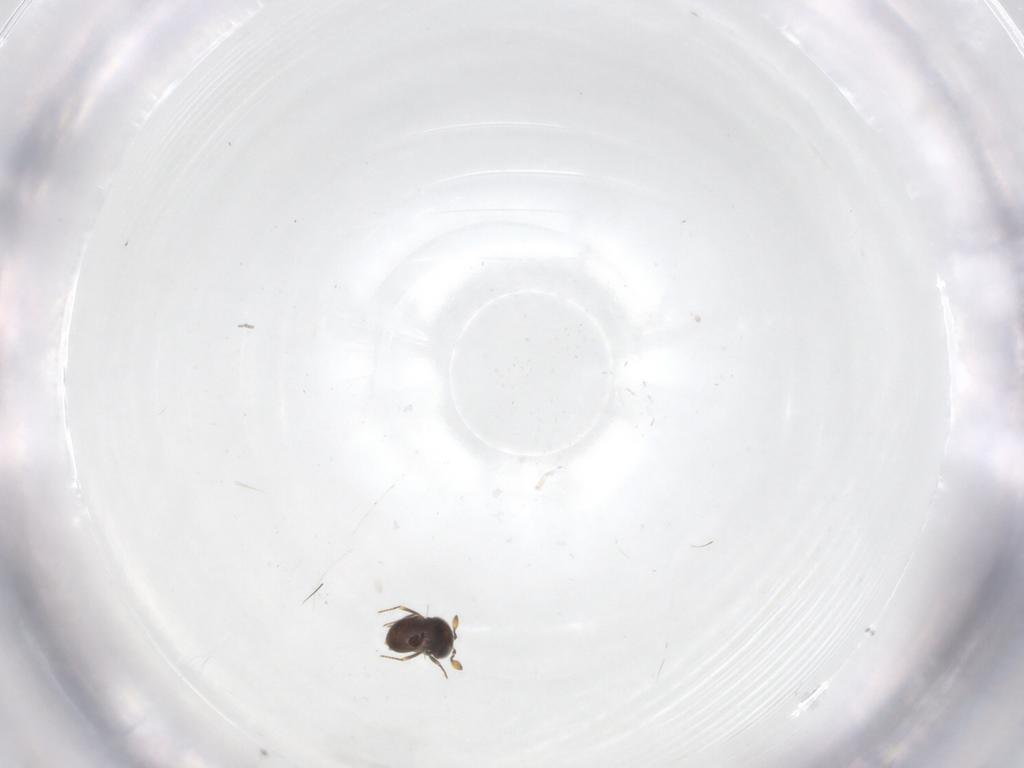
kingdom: Animalia
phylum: Arthropoda
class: Insecta
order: Hymenoptera
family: Scelionidae
